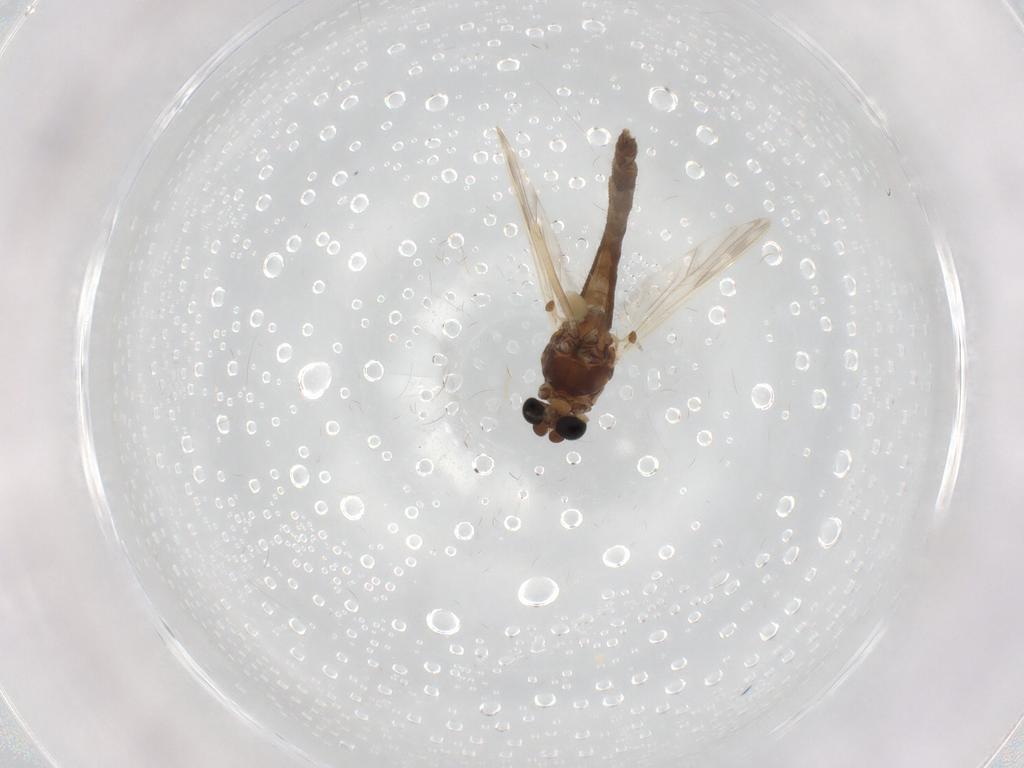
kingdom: Animalia
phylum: Arthropoda
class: Insecta
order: Diptera
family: Chironomidae
